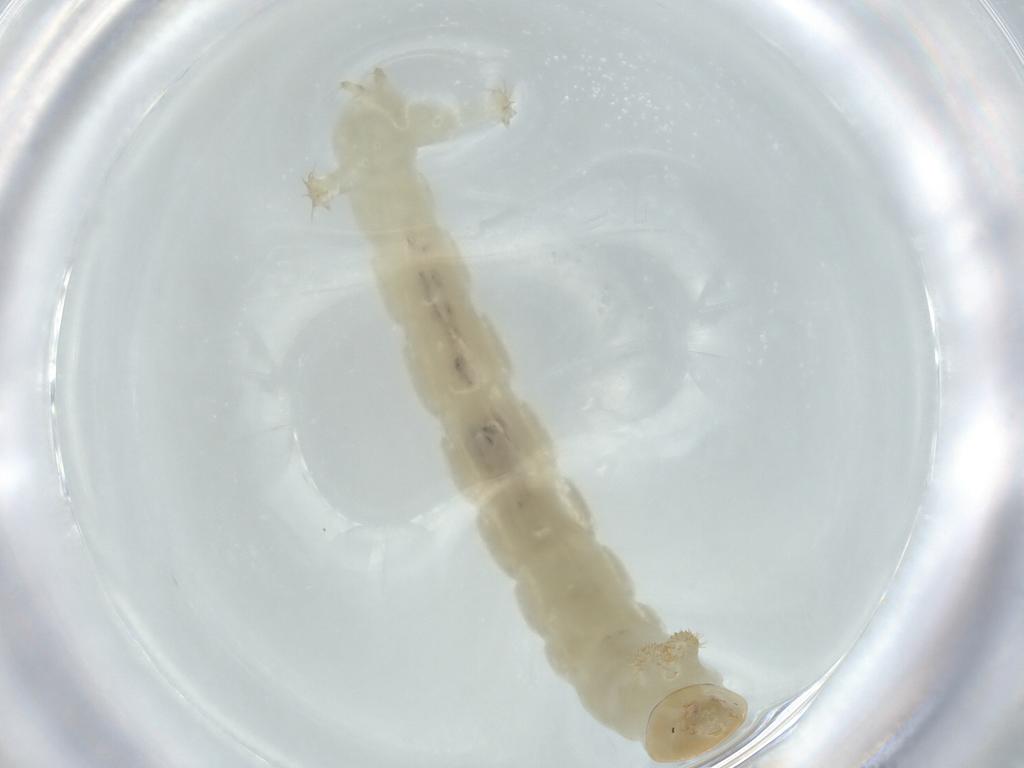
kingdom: Animalia
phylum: Arthropoda
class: Insecta
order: Diptera
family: Chironomidae
